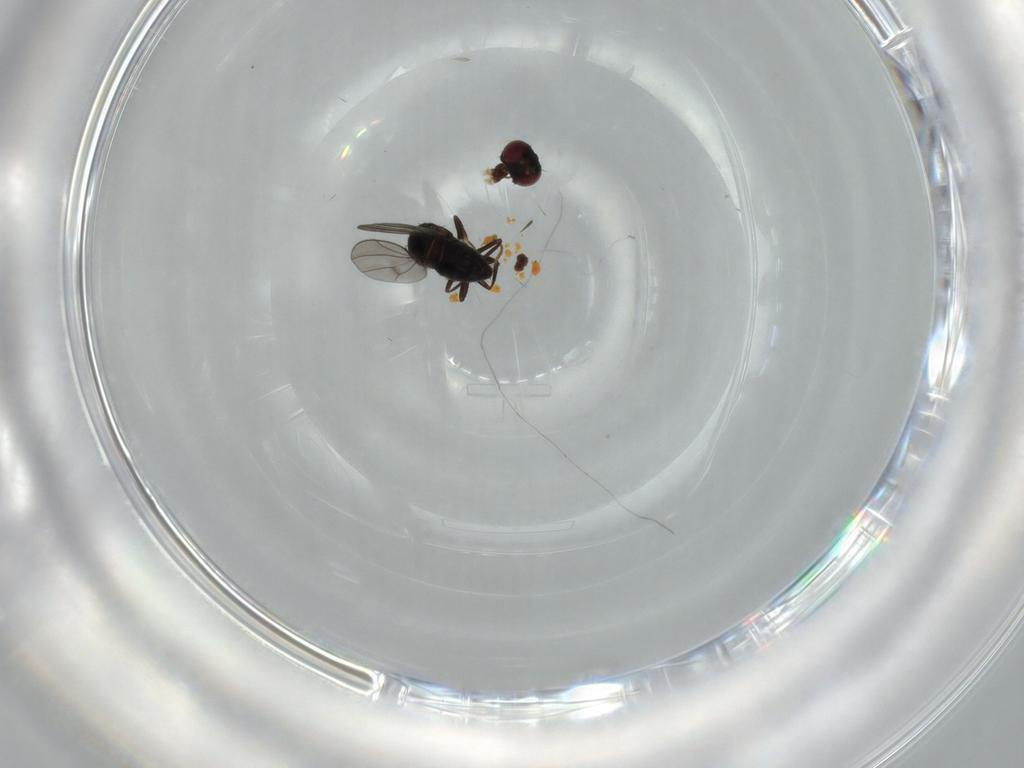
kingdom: Animalia
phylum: Arthropoda
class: Insecta
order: Diptera
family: Ephydridae
